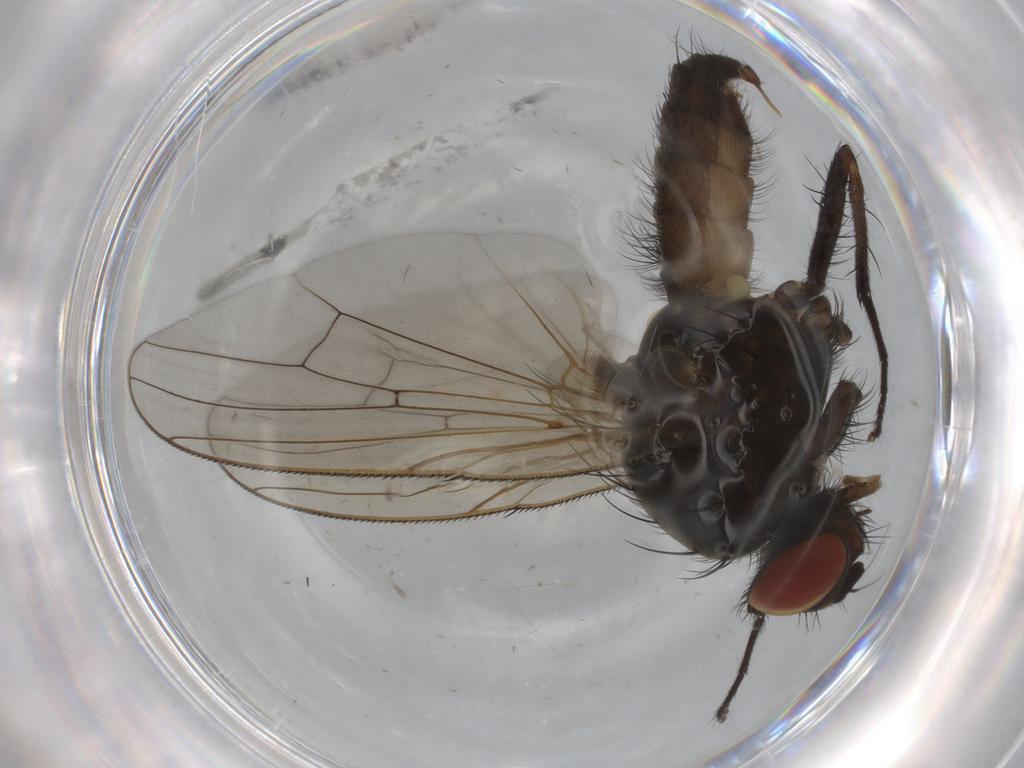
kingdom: Animalia
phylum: Arthropoda
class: Insecta
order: Diptera
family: Anthomyiidae
